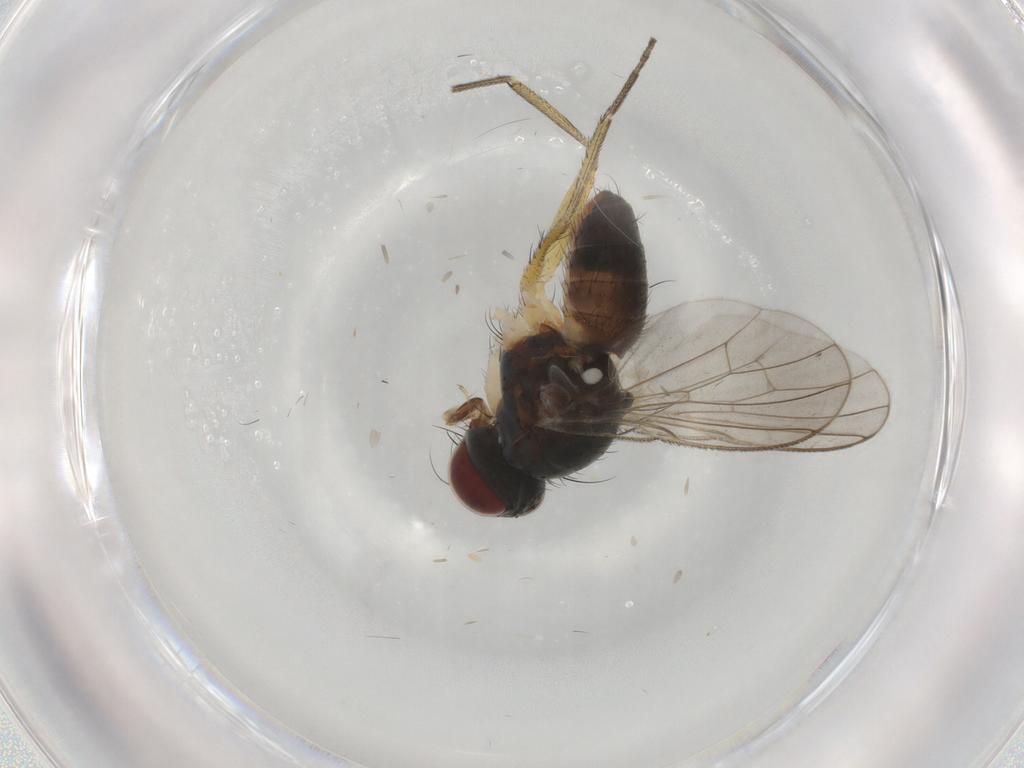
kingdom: Animalia
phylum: Arthropoda
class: Insecta
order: Diptera
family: Muscidae
